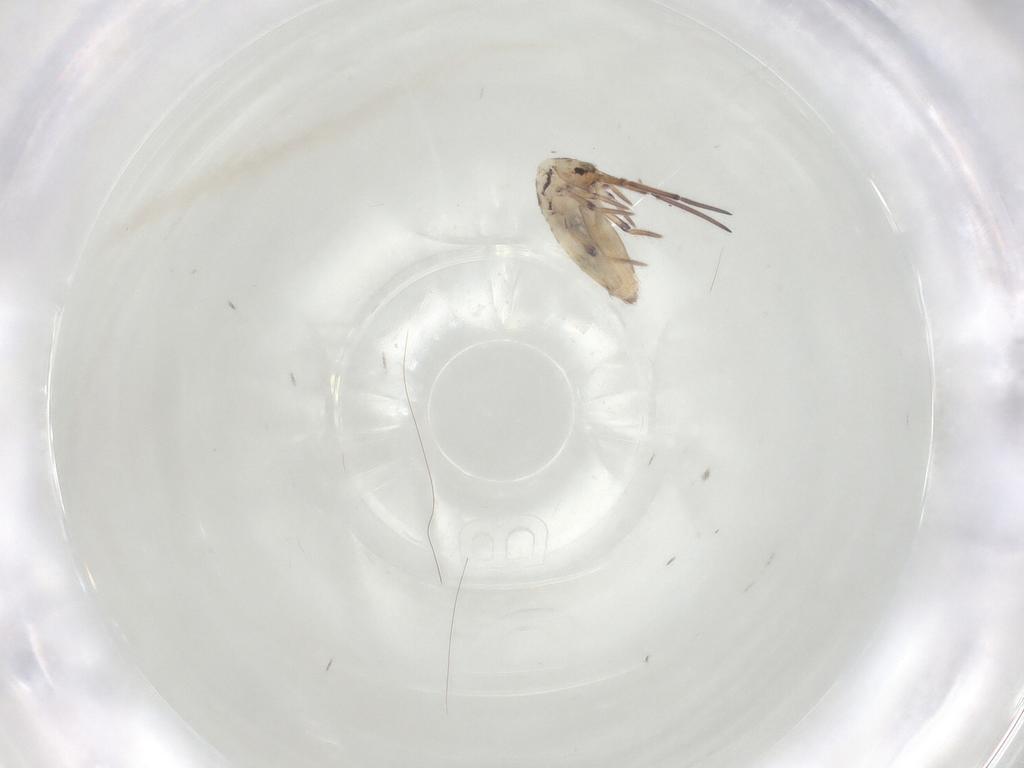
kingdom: Animalia
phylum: Arthropoda
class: Collembola
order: Entomobryomorpha
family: Entomobryidae
